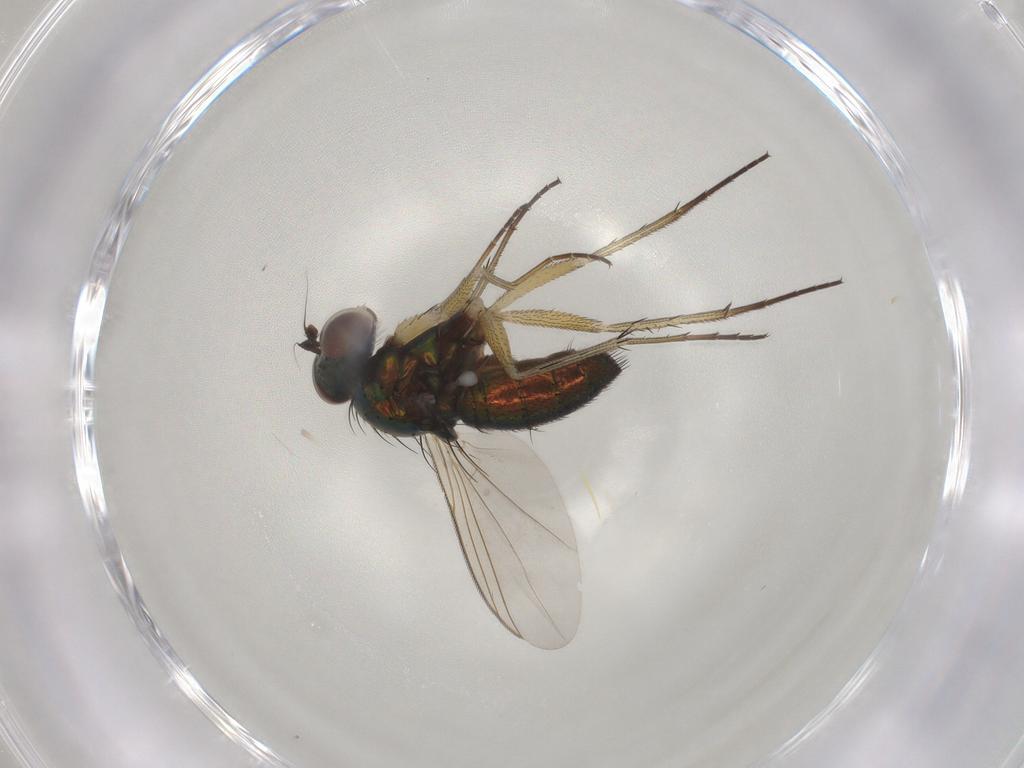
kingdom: Animalia
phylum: Arthropoda
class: Insecta
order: Diptera
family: Dolichopodidae
